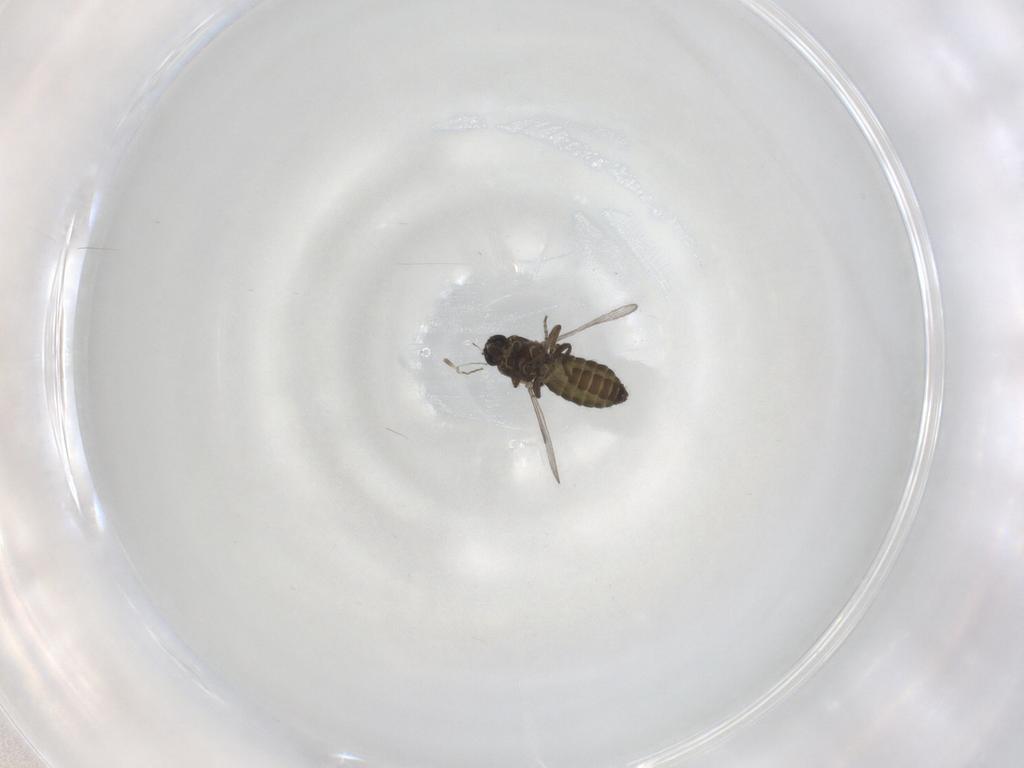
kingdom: Animalia
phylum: Arthropoda
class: Insecta
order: Diptera
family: Ceratopogonidae
